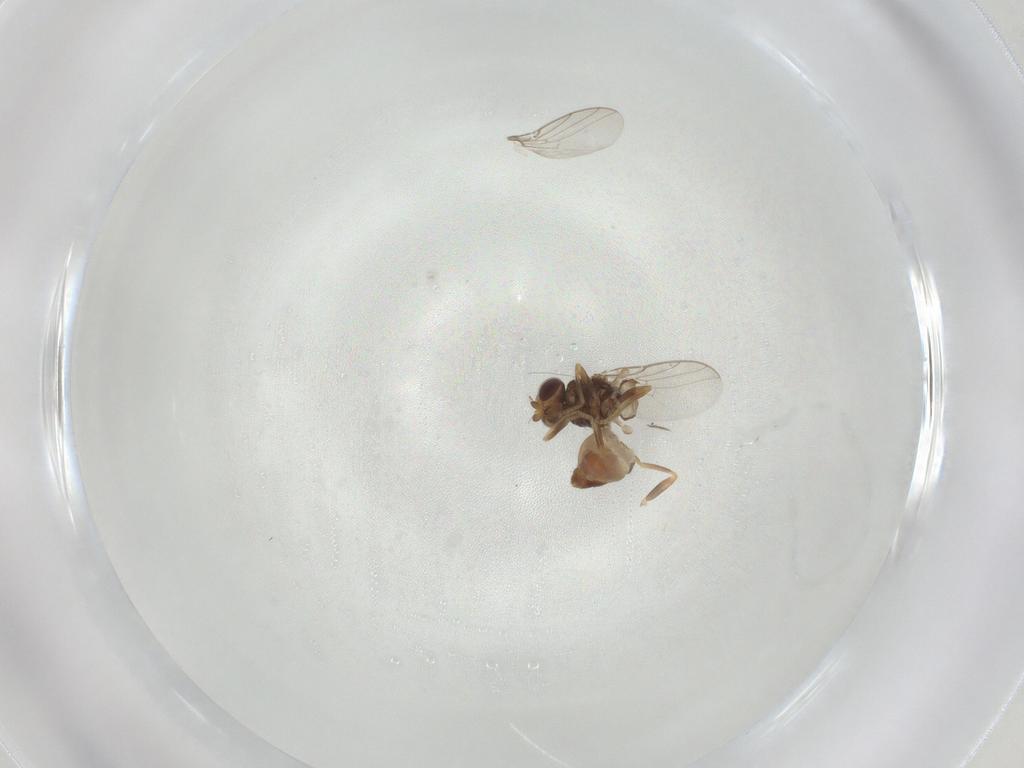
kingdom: Animalia
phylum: Arthropoda
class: Insecta
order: Diptera
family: Chloropidae
